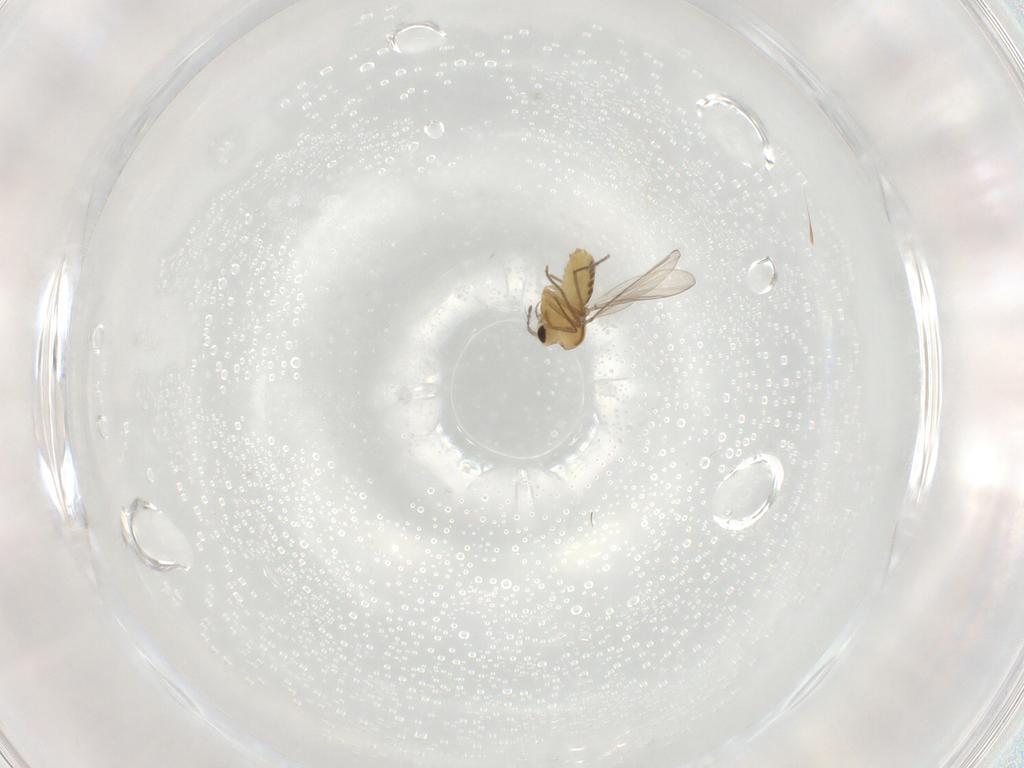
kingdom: Animalia
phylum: Arthropoda
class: Insecta
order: Diptera
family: Chironomidae
